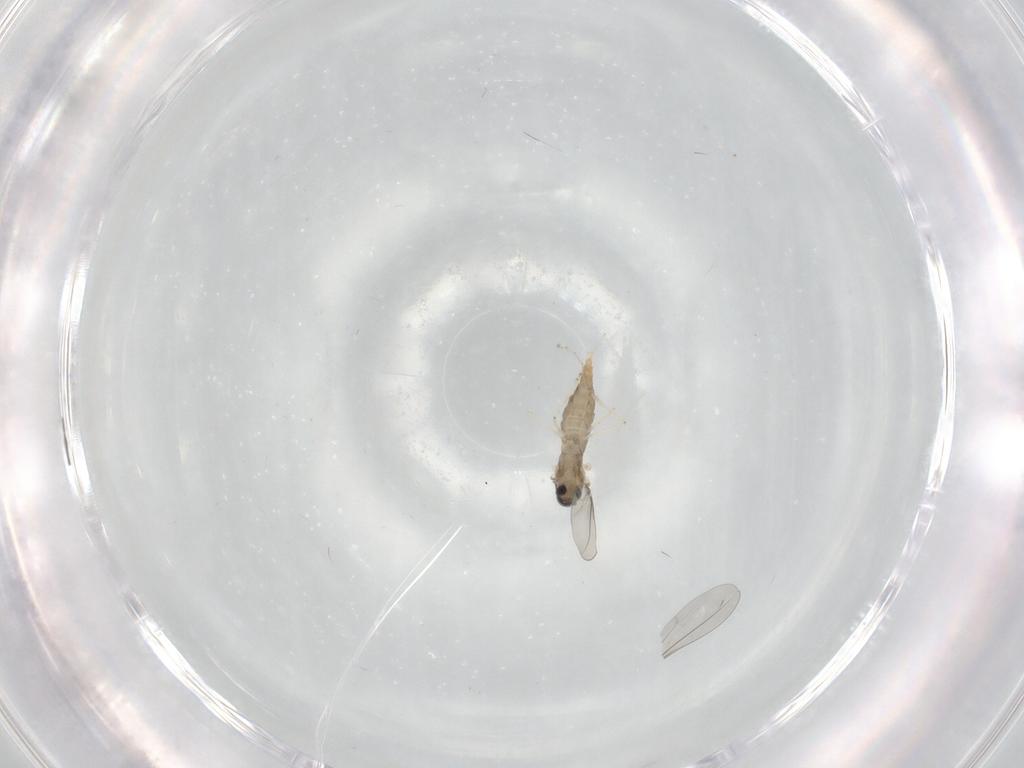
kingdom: Animalia
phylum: Arthropoda
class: Insecta
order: Diptera
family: Cecidomyiidae
